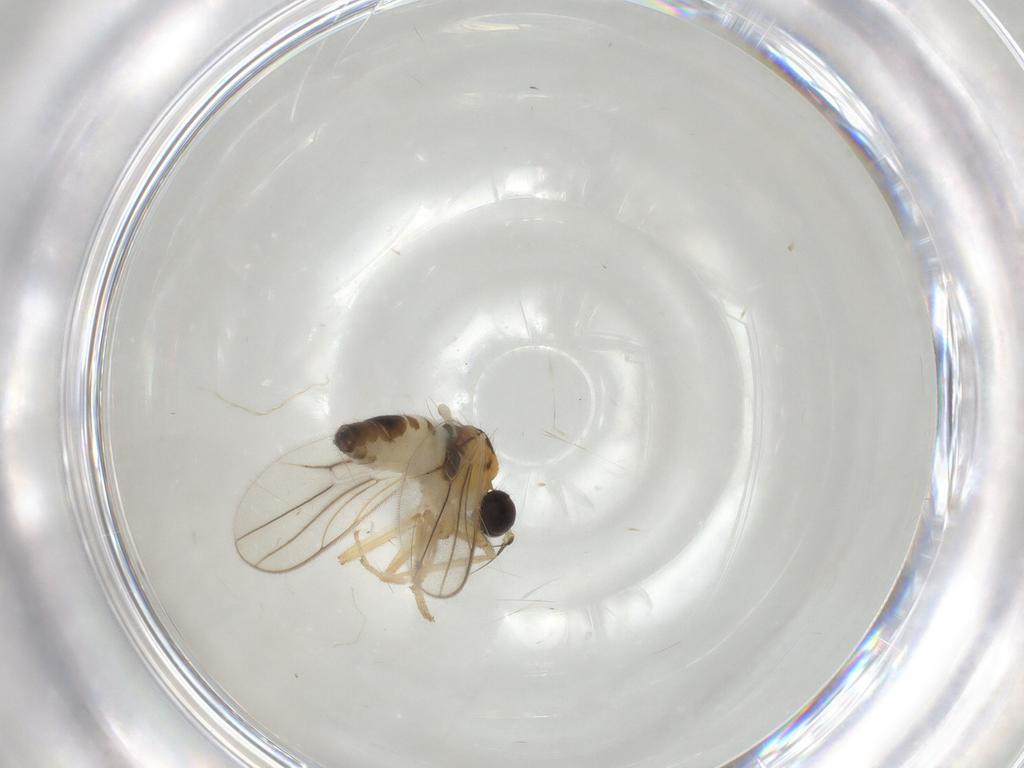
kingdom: Animalia
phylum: Arthropoda
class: Insecta
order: Diptera
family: Hybotidae
